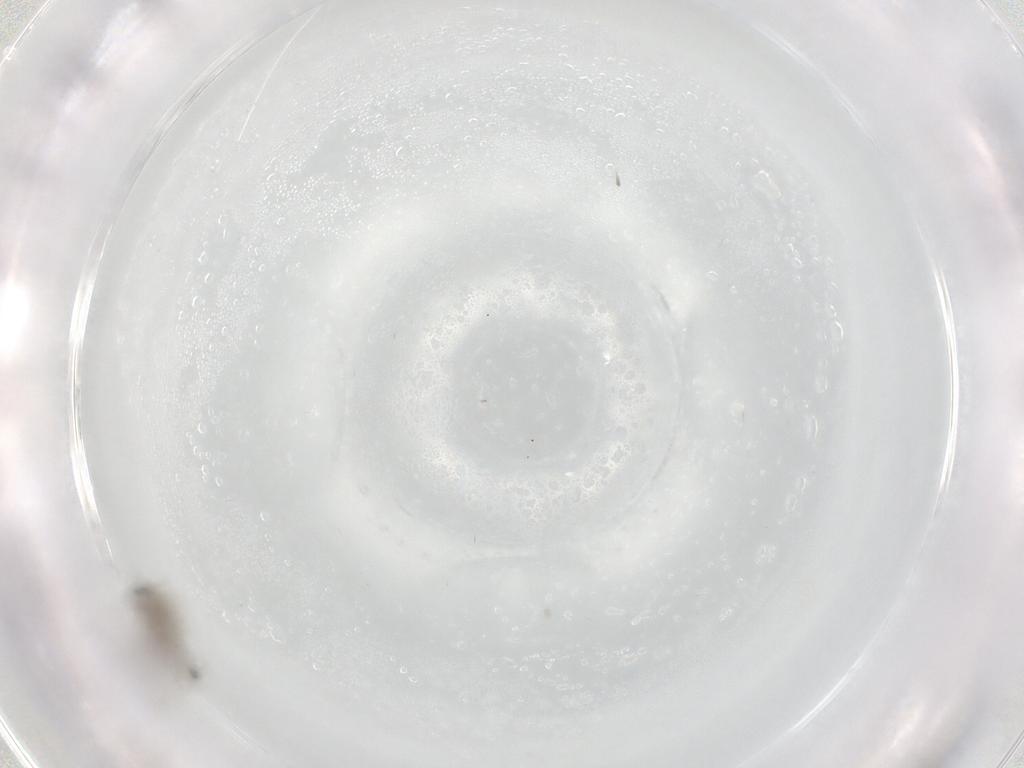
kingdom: Animalia
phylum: Arthropoda
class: Insecta
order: Diptera
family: Psychodidae
